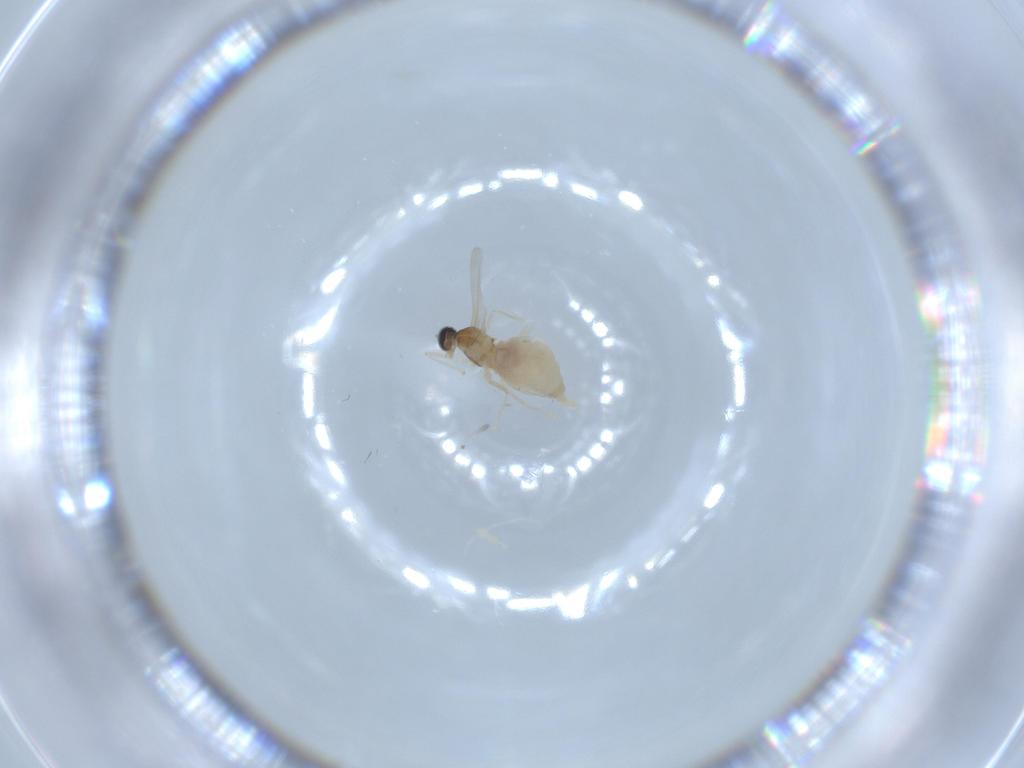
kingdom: Animalia
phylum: Arthropoda
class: Insecta
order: Diptera
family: Cecidomyiidae
